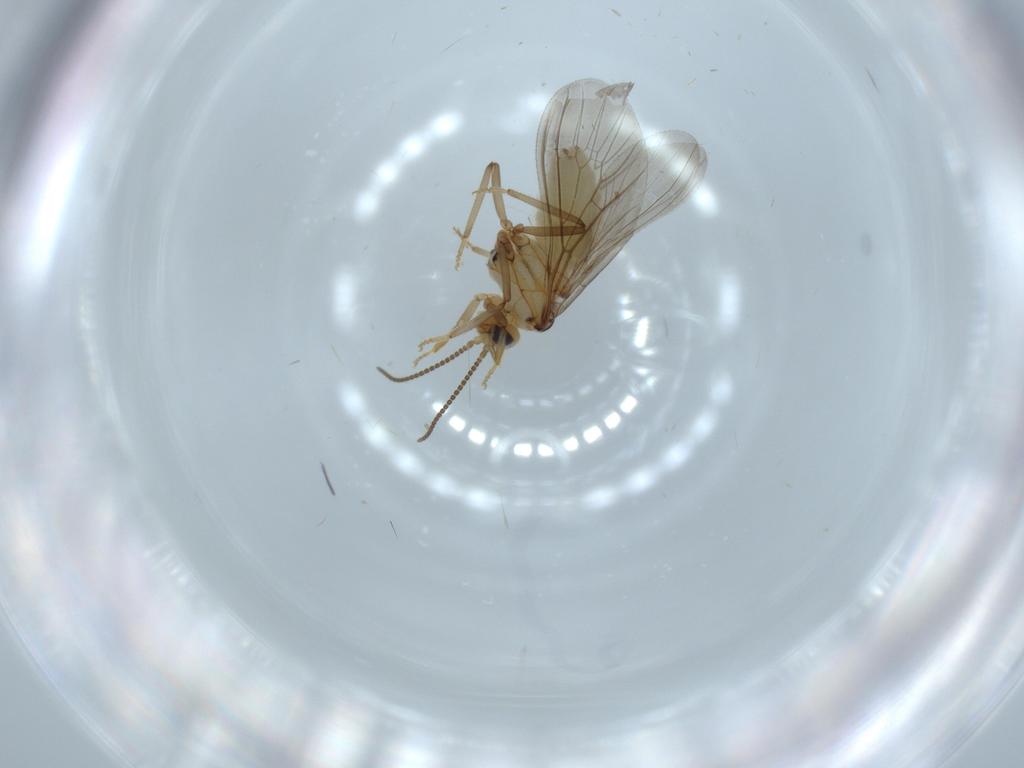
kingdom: Animalia
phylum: Arthropoda
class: Insecta
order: Neuroptera
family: Coniopterygidae
